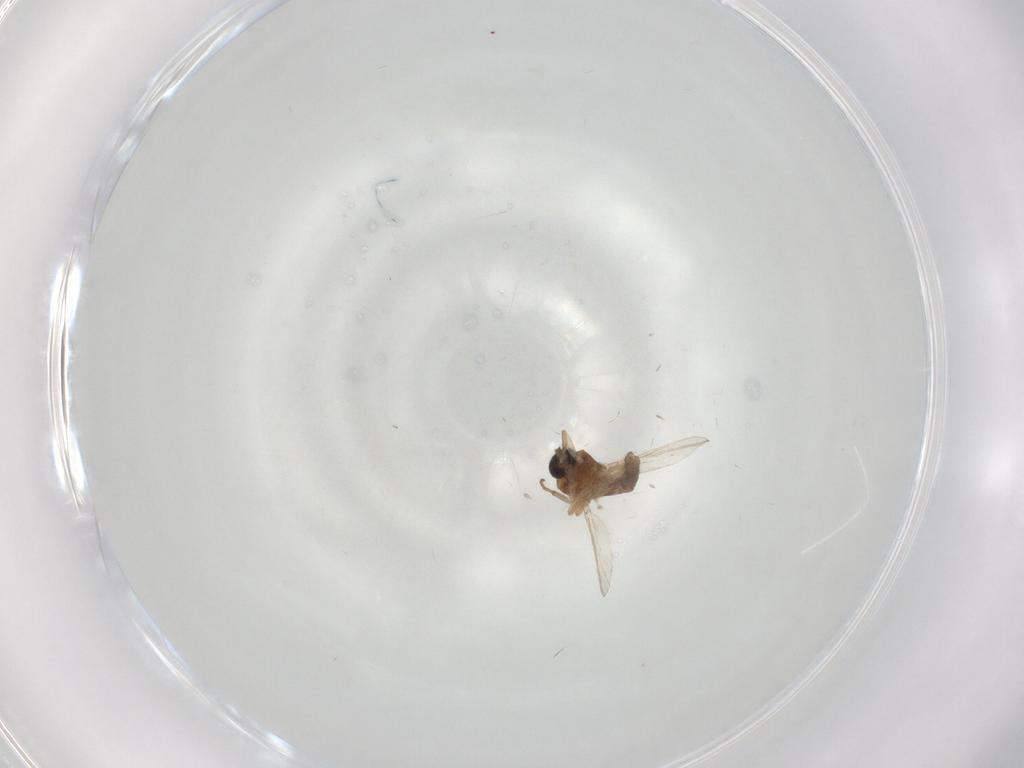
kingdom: Animalia
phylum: Arthropoda
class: Insecta
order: Diptera
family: Ceratopogonidae
